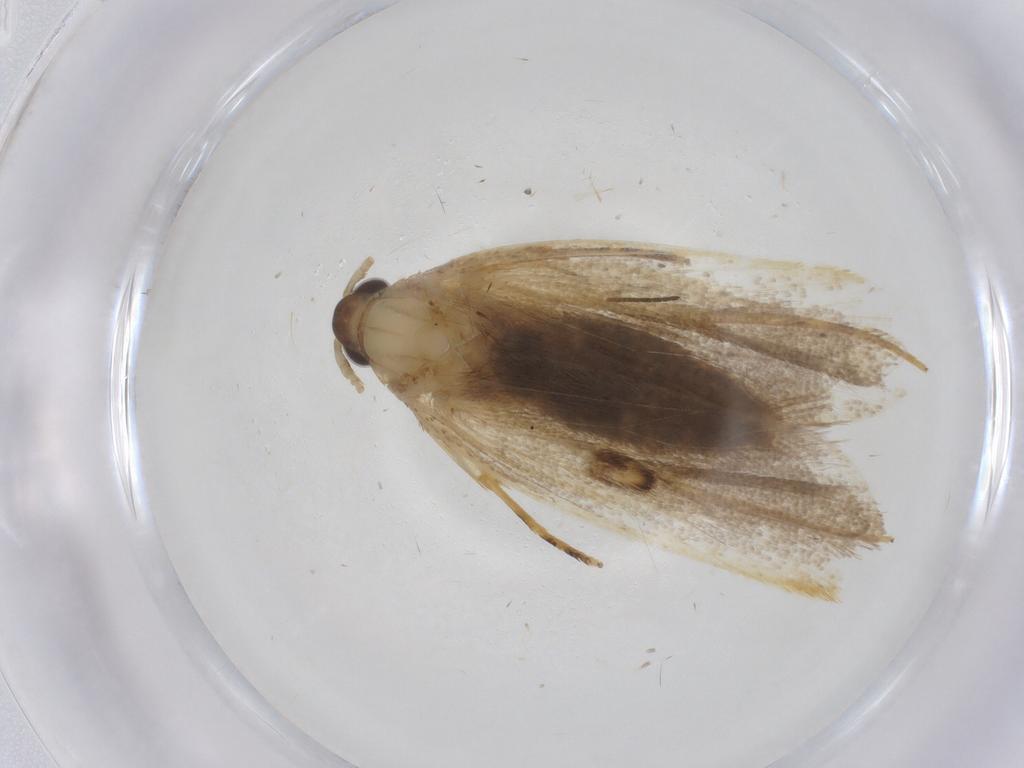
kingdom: Animalia
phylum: Arthropoda
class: Insecta
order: Lepidoptera
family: Lecithoceridae
